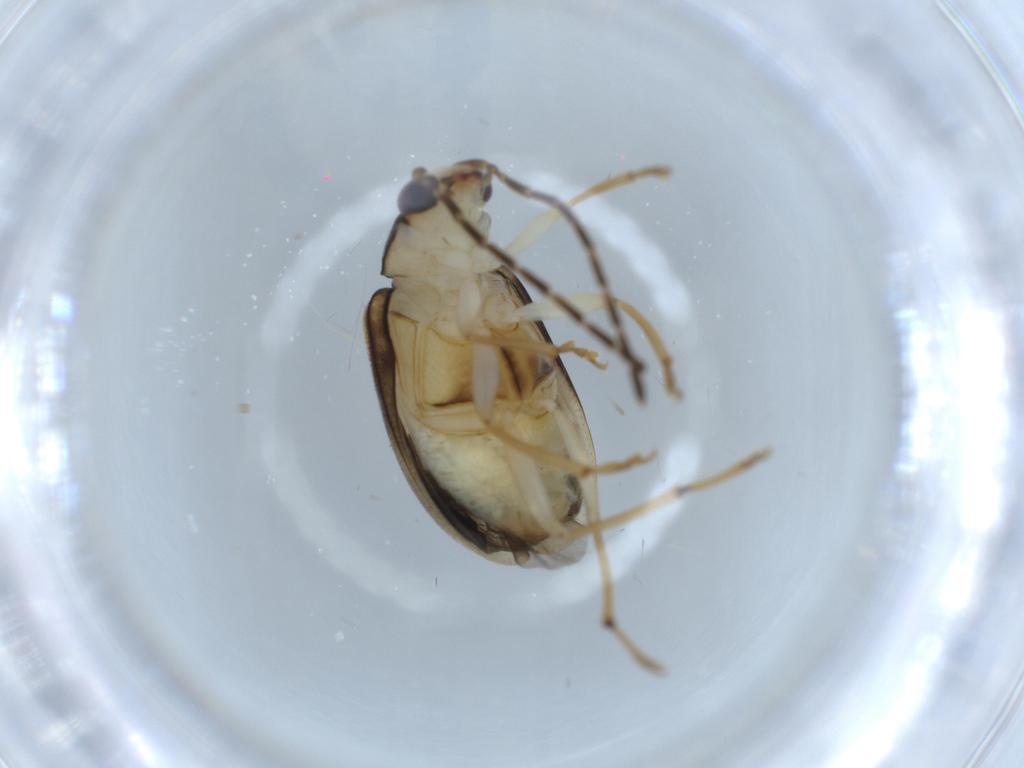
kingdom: Animalia
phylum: Arthropoda
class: Insecta
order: Coleoptera
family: Chrysomelidae
